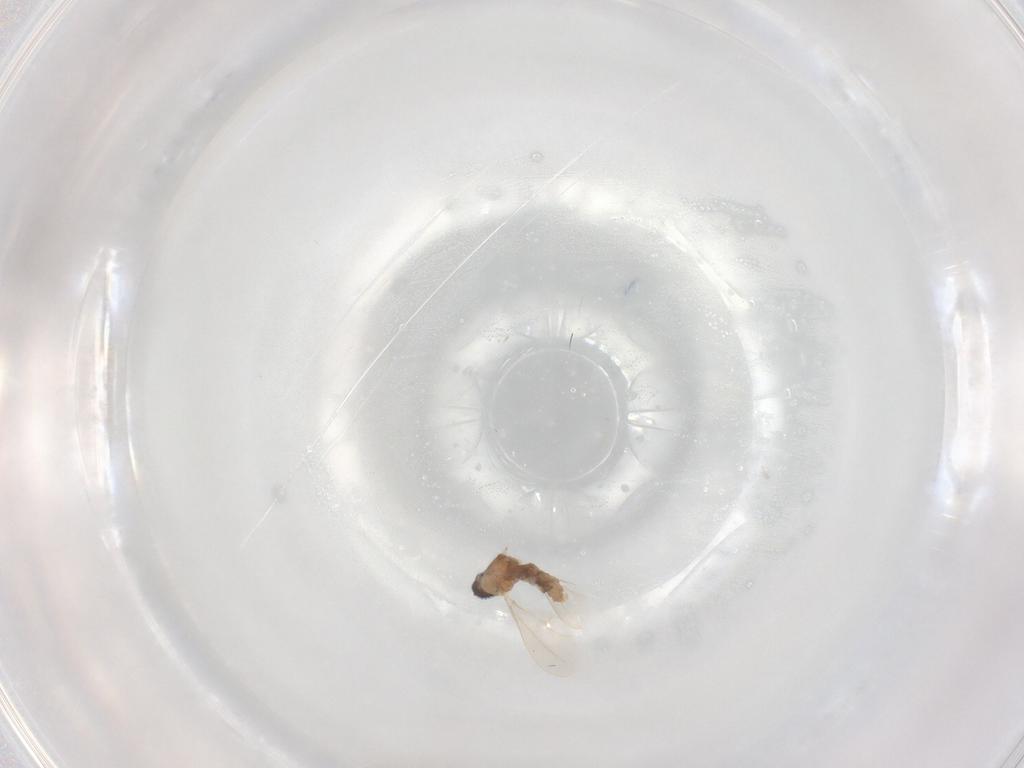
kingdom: Animalia
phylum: Arthropoda
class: Insecta
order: Diptera
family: Cecidomyiidae
